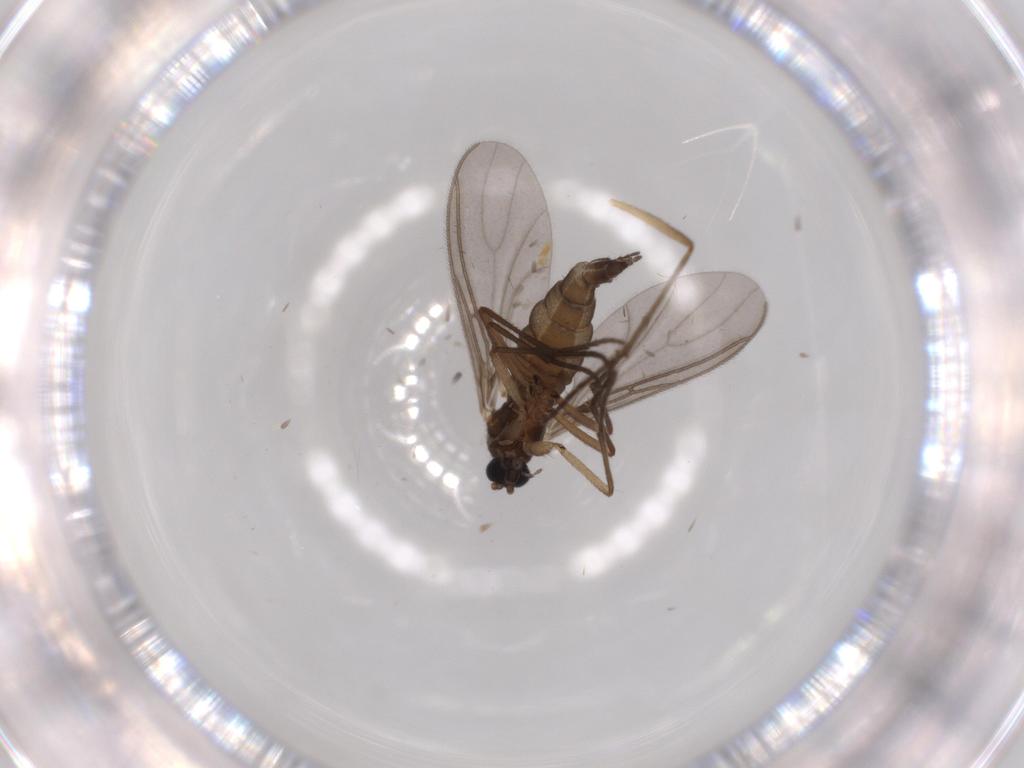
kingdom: Animalia
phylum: Arthropoda
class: Insecta
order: Diptera
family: Sciaridae
